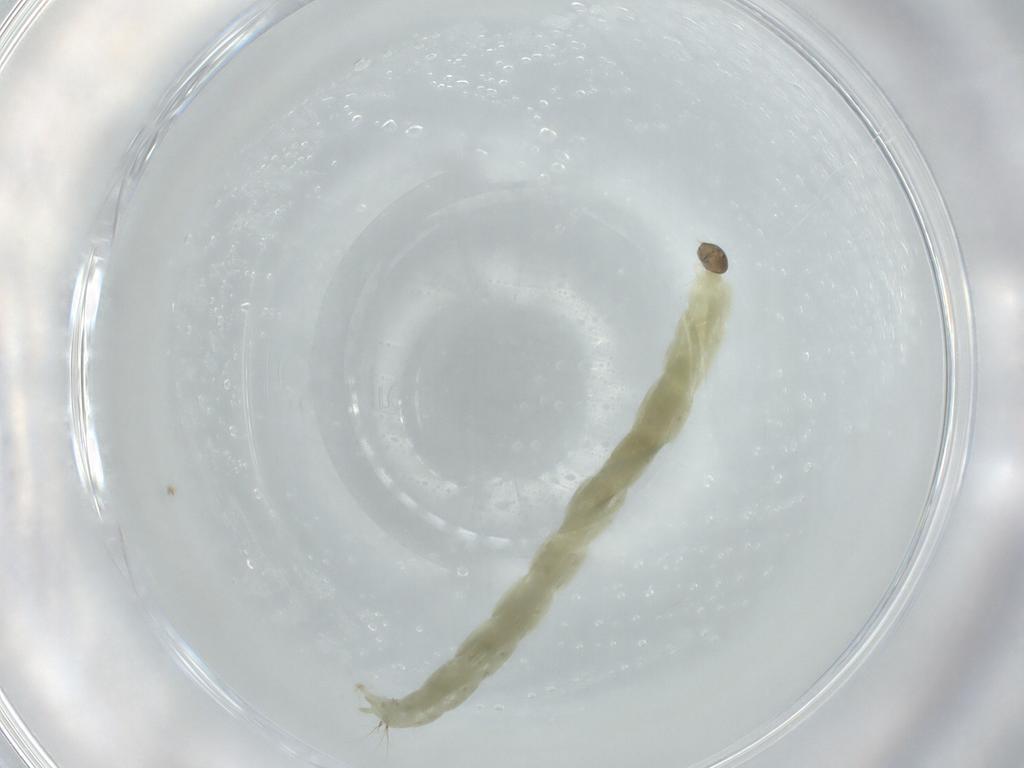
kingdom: Animalia
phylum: Arthropoda
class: Insecta
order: Diptera
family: Chironomidae
